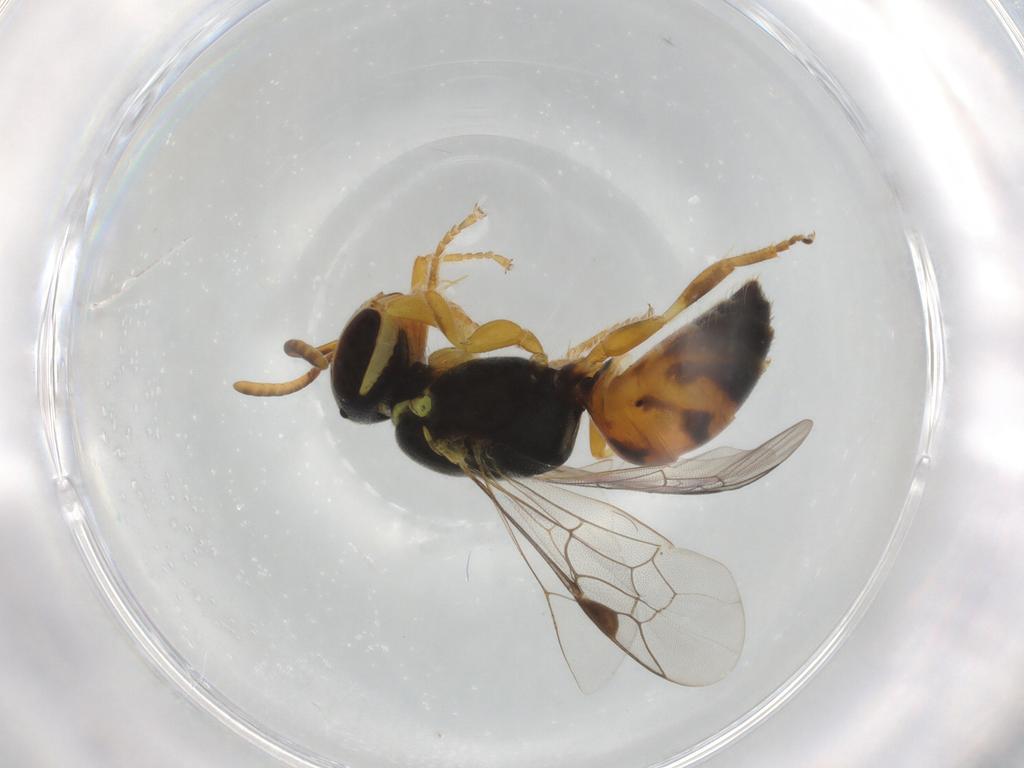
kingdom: Animalia
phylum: Arthropoda
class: Insecta
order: Hymenoptera
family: Colletidae
